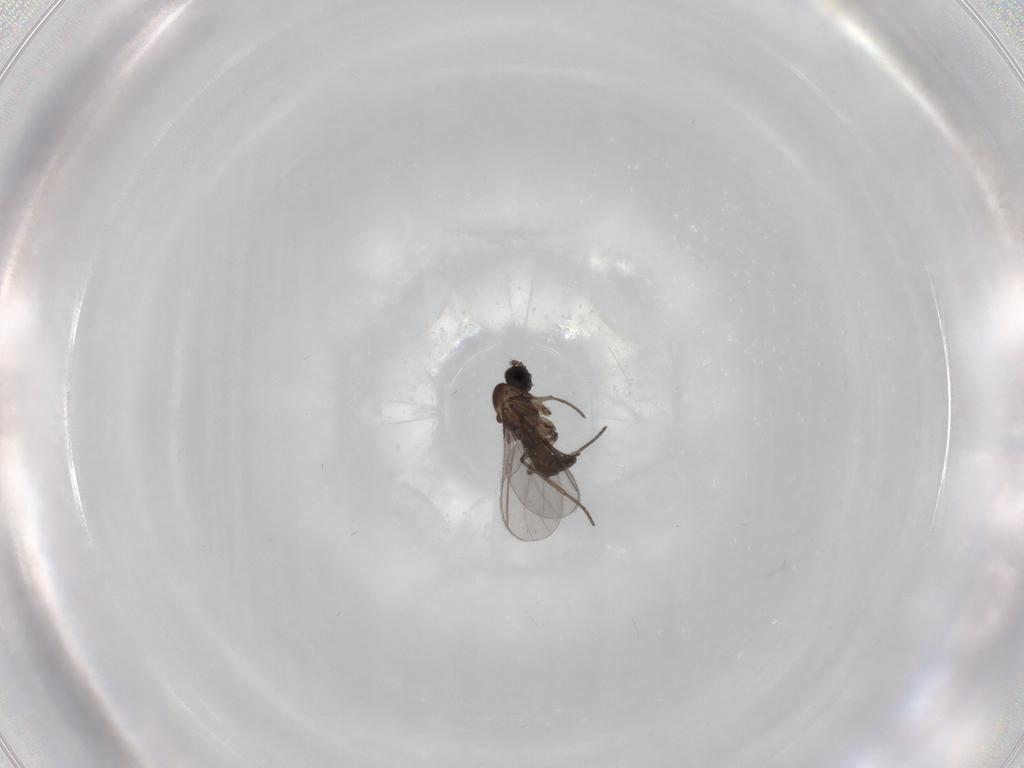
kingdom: Animalia
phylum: Arthropoda
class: Insecta
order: Diptera
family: Sciaridae
